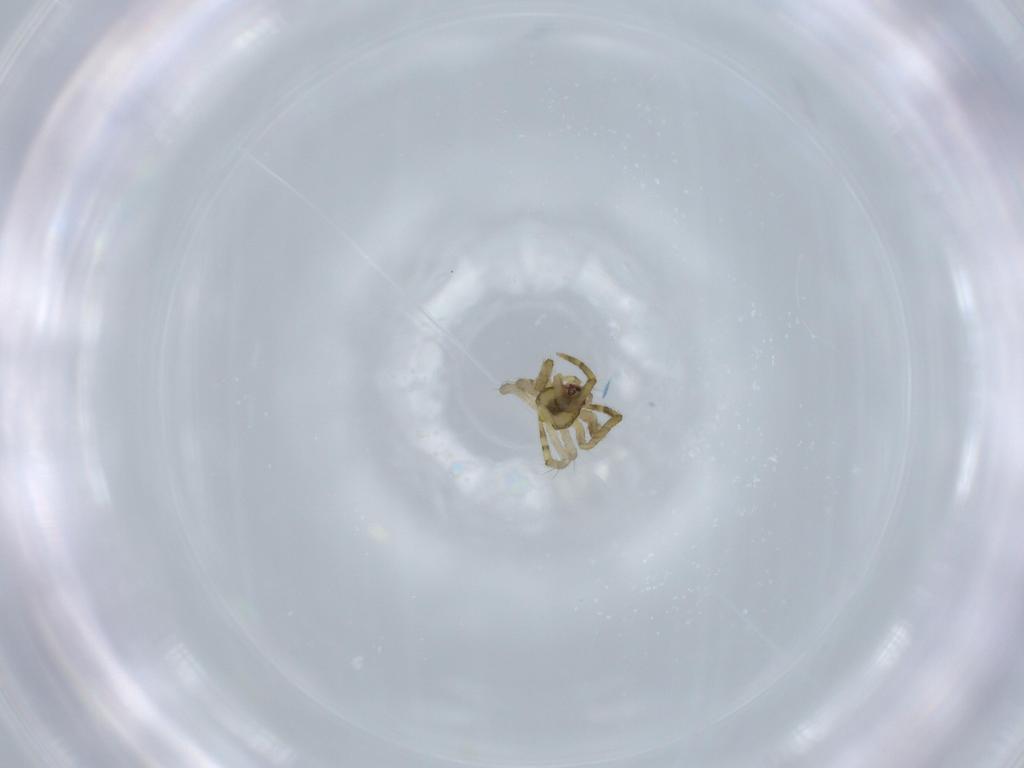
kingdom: Animalia
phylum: Arthropoda
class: Arachnida
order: Araneae
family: Theridiidae
